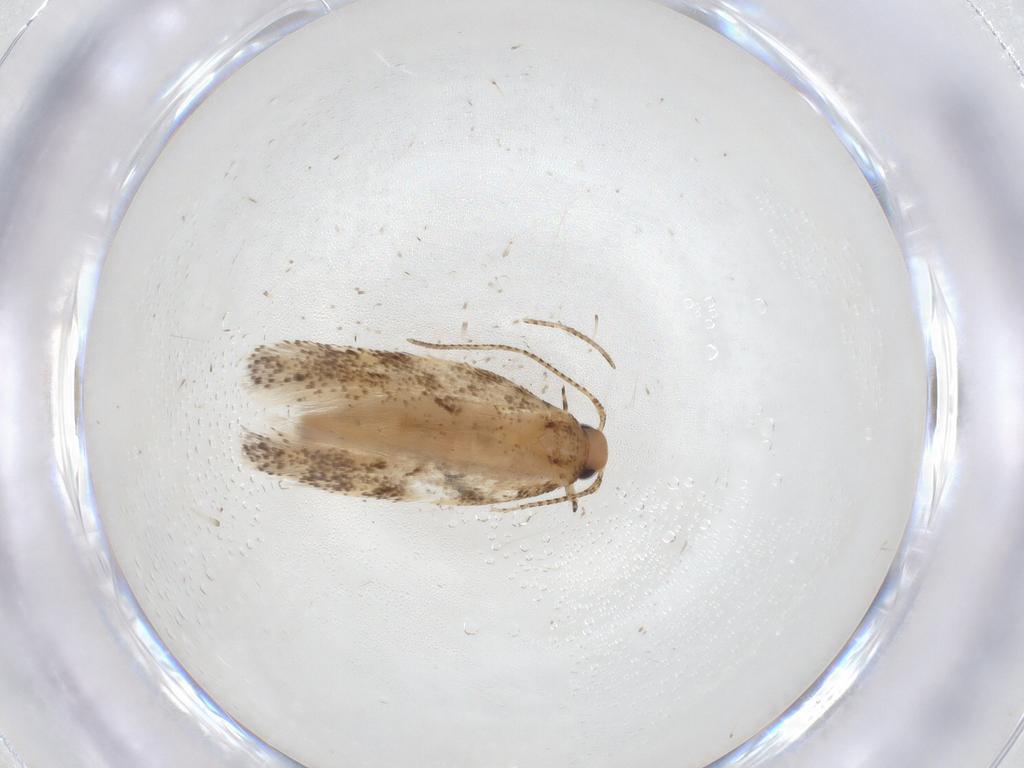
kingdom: Animalia
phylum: Arthropoda
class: Insecta
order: Lepidoptera
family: Gelechiidae
